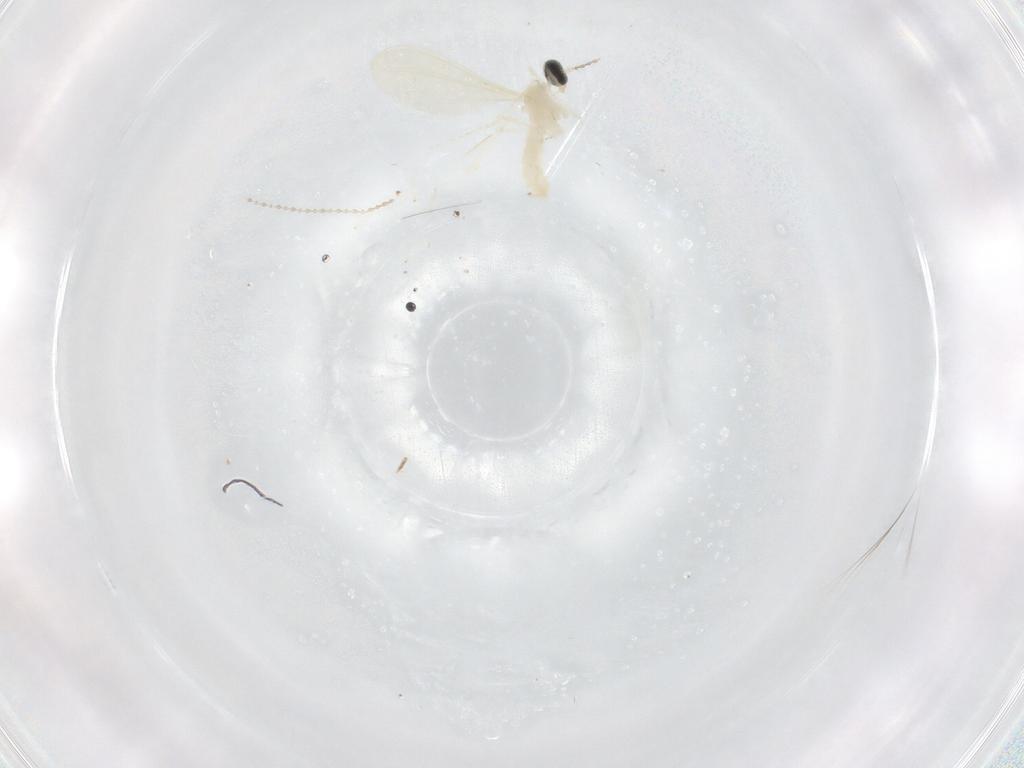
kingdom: Animalia
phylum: Arthropoda
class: Insecta
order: Diptera
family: Cecidomyiidae
